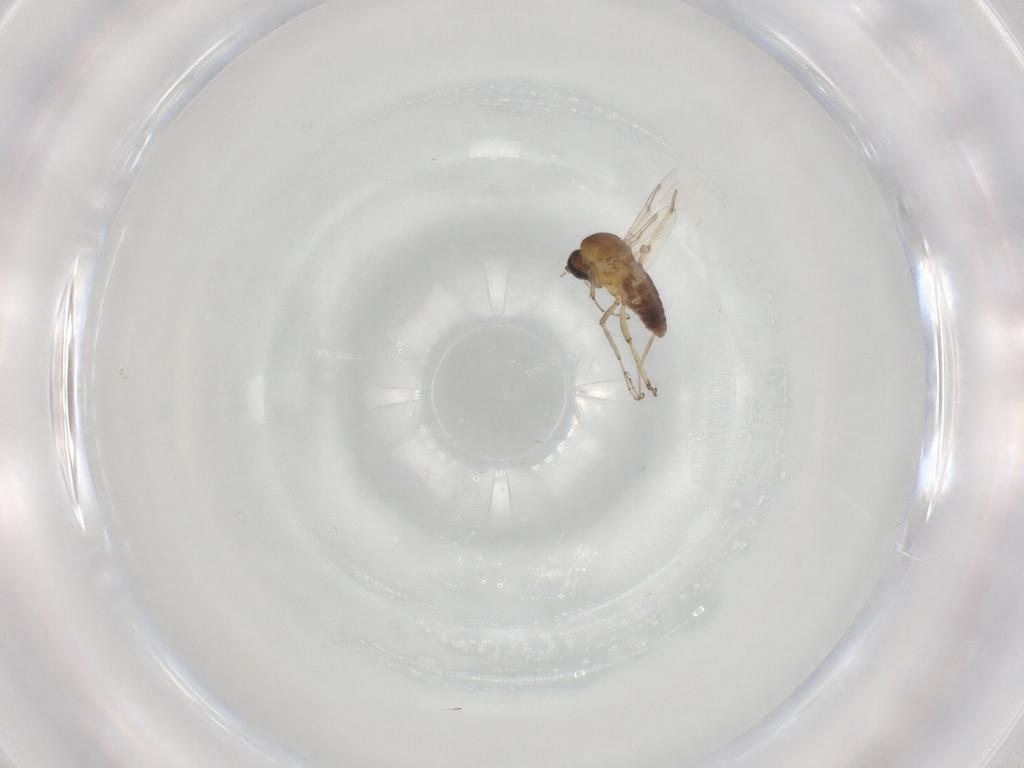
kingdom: Animalia
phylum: Arthropoda
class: Insecta
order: Diptera
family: Ceratopogonidae
